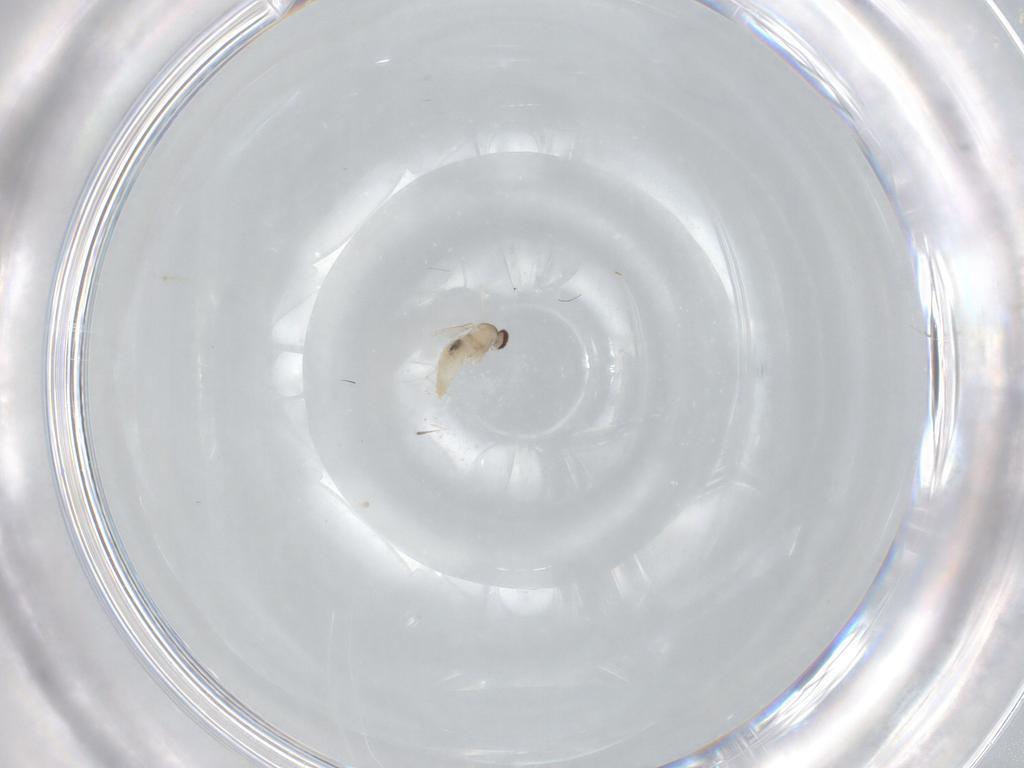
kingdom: Animalia
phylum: Arthropoda
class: Insecta
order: Diptera
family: Cecidomyiidae
